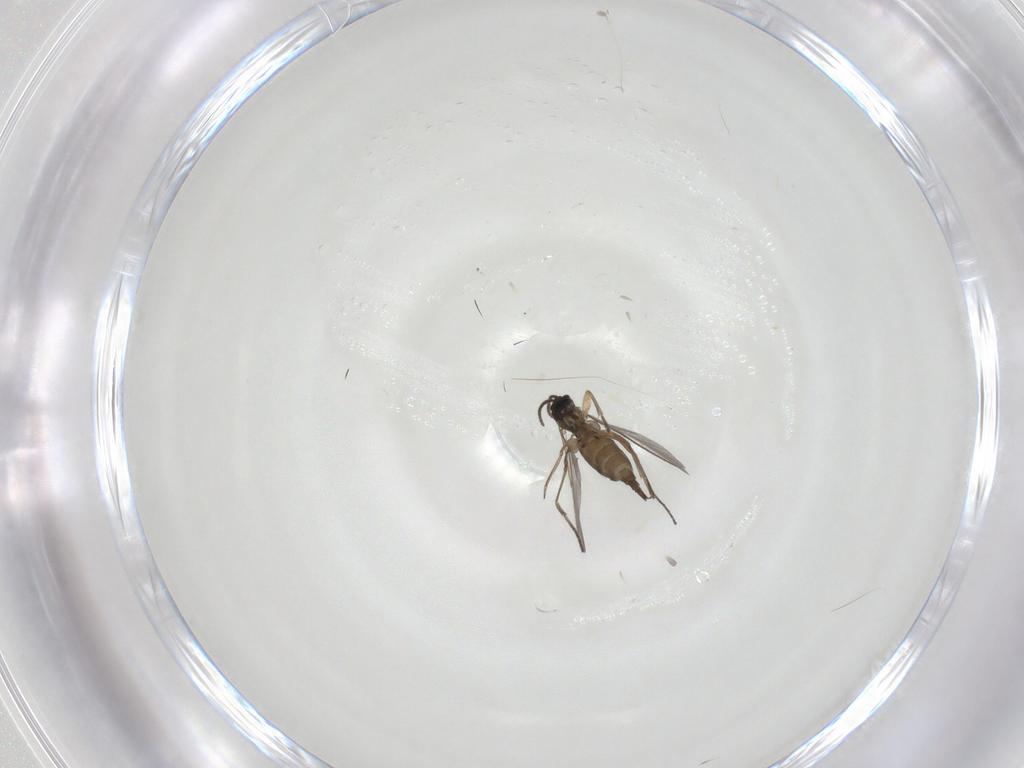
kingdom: Animalia
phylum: Arthropoda
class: Insecta
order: Diptera
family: Sciaridae
